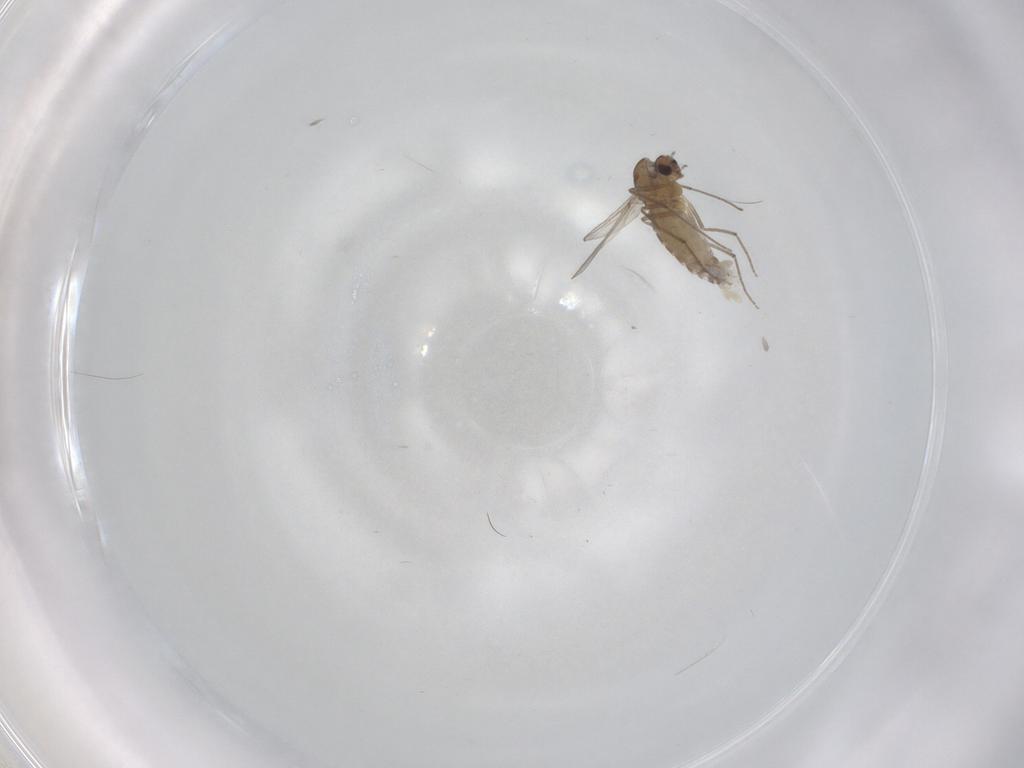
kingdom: Animalia
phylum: Arthropoda
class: Insecta
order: Diptera
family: Chironomidae
